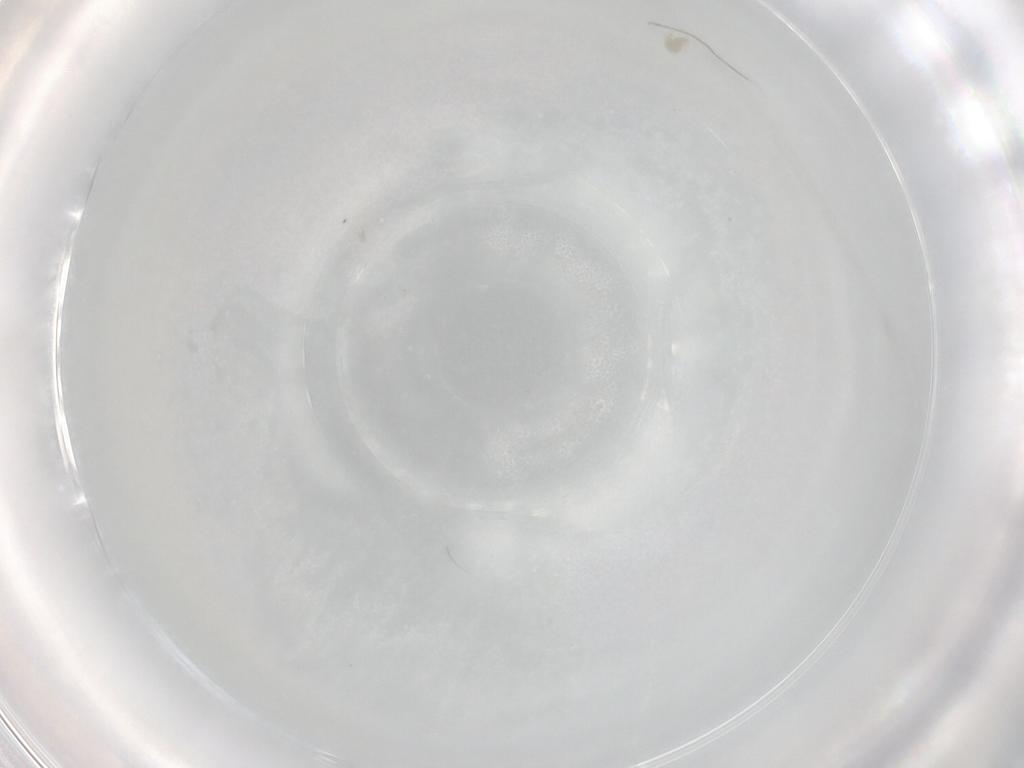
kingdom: Animalia
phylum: Arthropoda
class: Arachnida
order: Trombidiformes
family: Eupodidae
